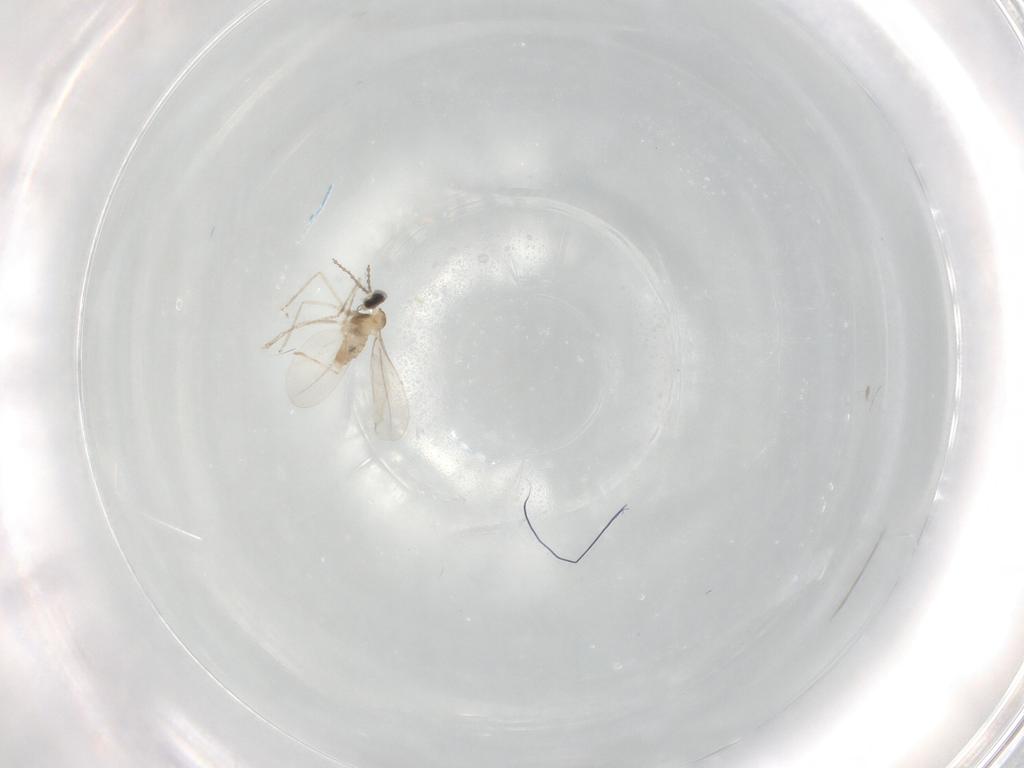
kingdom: Animalia
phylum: Arthropoda
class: Insecta
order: Diptera
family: Cecidomyiidae
